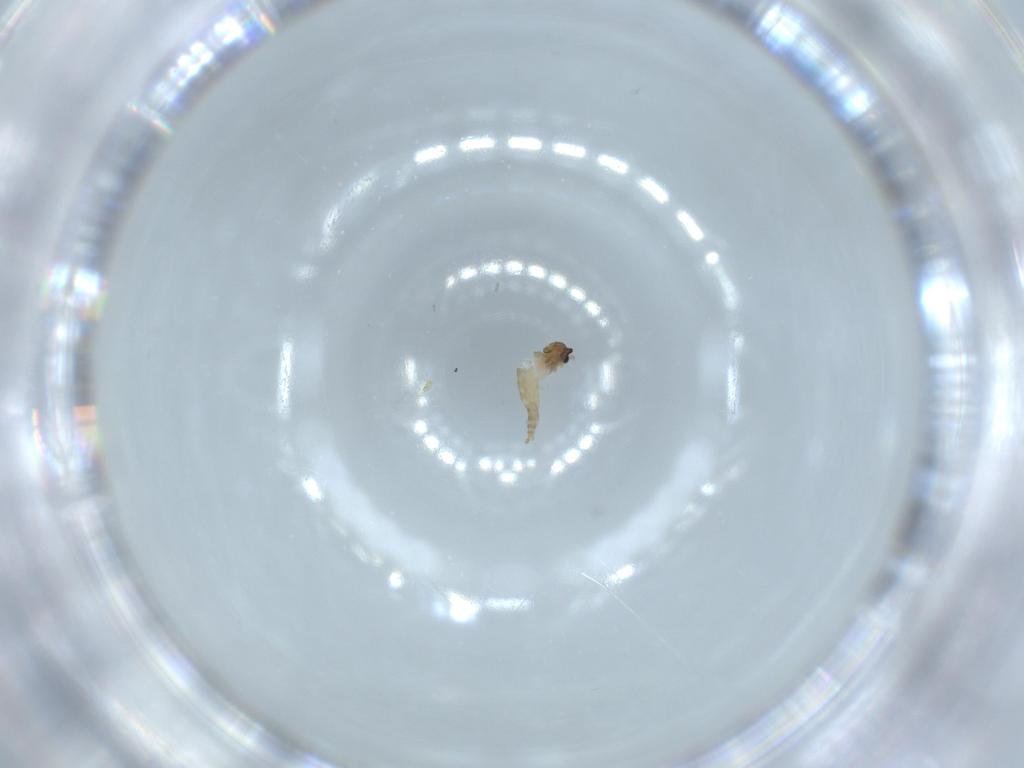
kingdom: Animalia
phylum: Arthropoda
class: Insecta
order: Diptera
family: Cecidomyiidae
